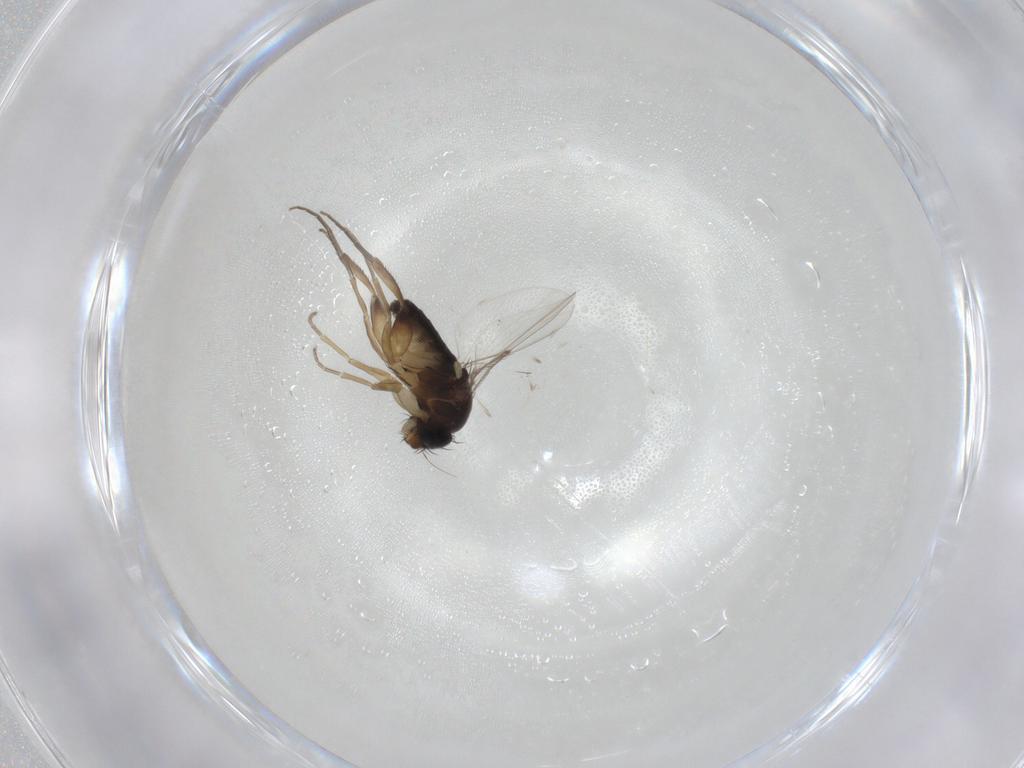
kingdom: Animalia
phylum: Arthropoda
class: Insecta
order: Diptera
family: Phoridae
